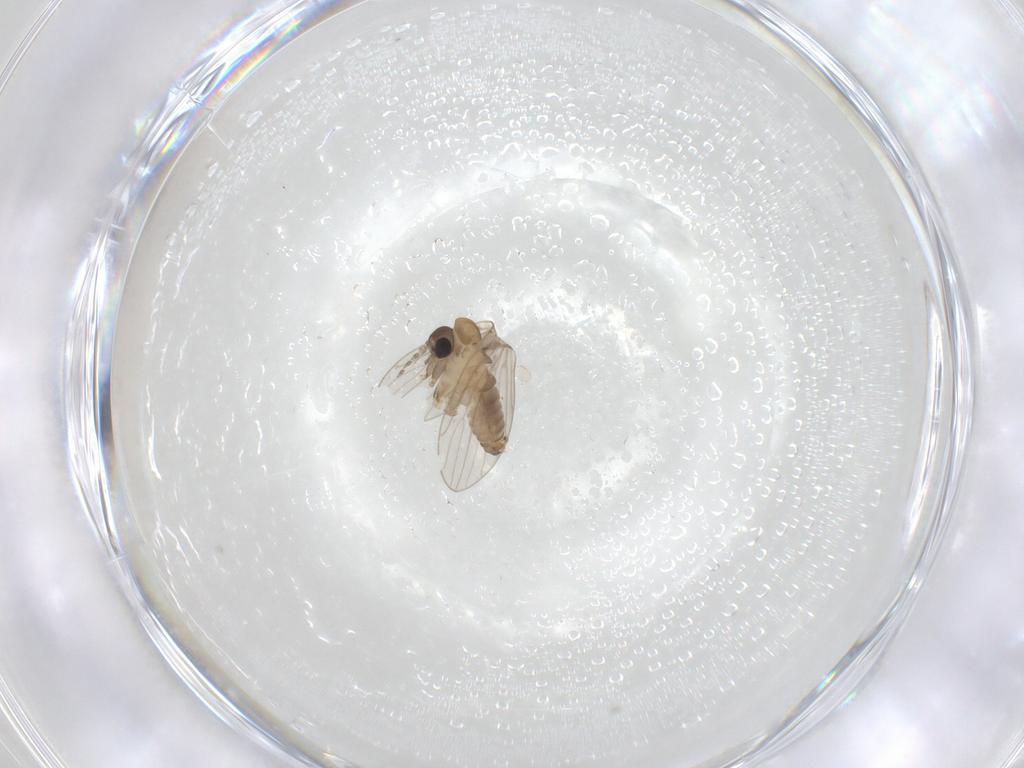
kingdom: Animalia
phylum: Arthropoda
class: Insecta
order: Diptera
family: Psychodidae
